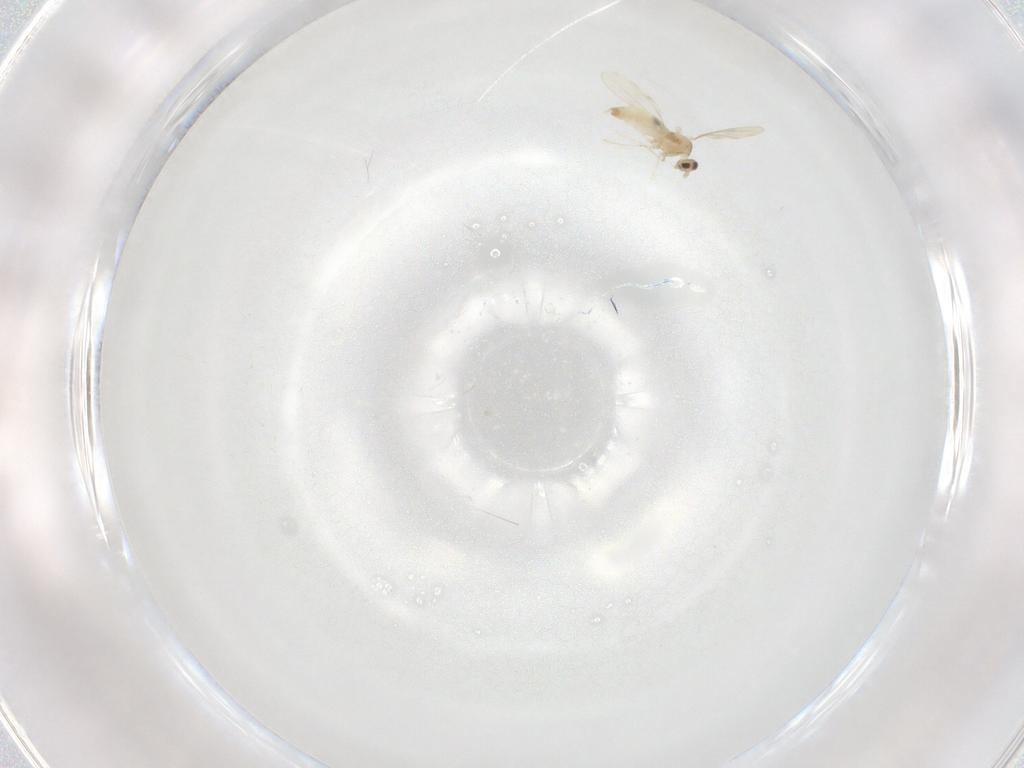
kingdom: Animalia
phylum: Arthropoda
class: Insecta
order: Diptera
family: Cecidomyiidae
